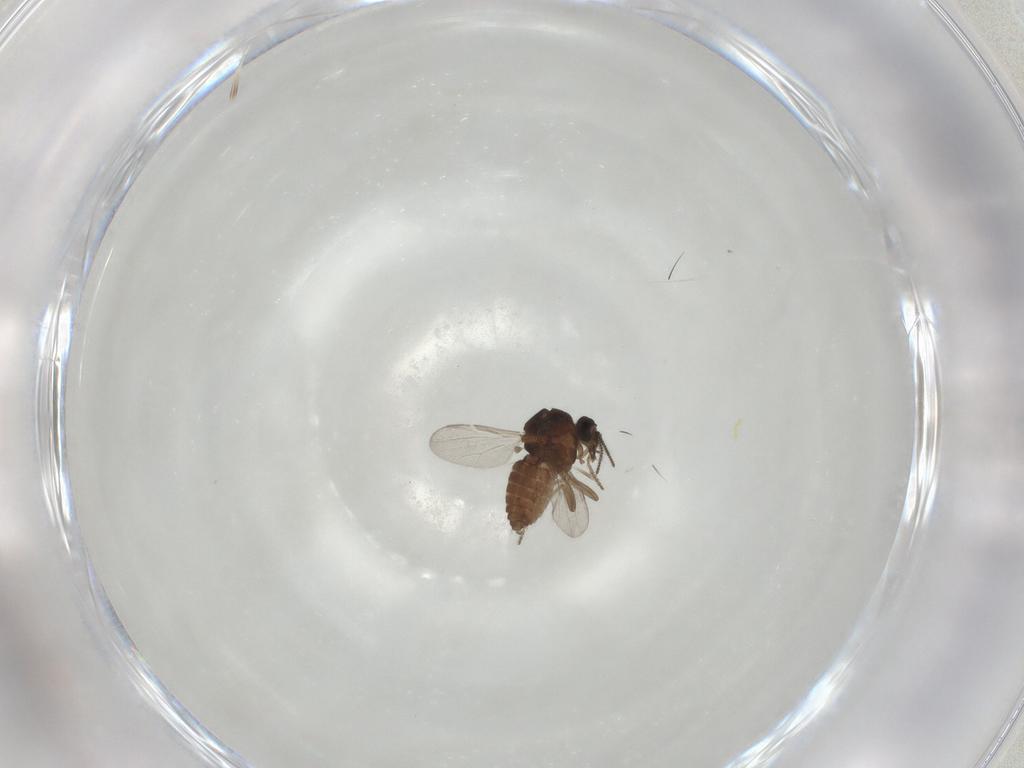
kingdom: Animalia
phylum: Arthropoda
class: Insecta
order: Diptera
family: Ceratopogonidae
